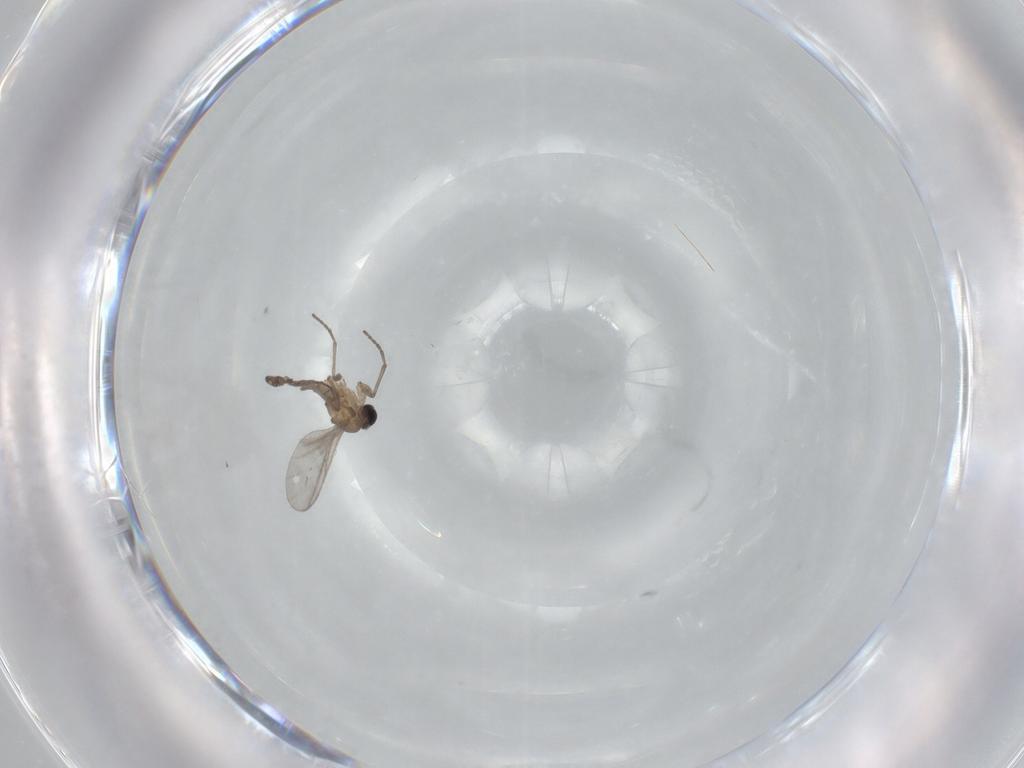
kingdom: Animalia
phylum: Arthropoda
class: Insecta
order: Diptera
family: Sciaridae
